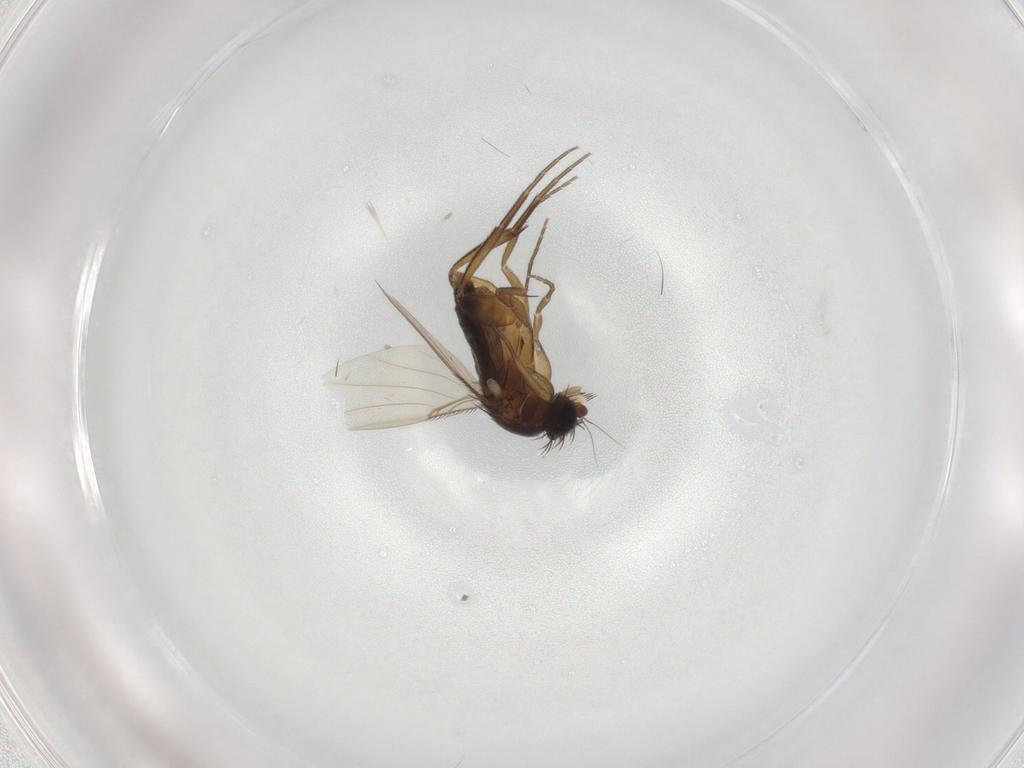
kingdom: Animalia
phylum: Arthropoda
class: Insecta
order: Diptera
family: Phoridae
